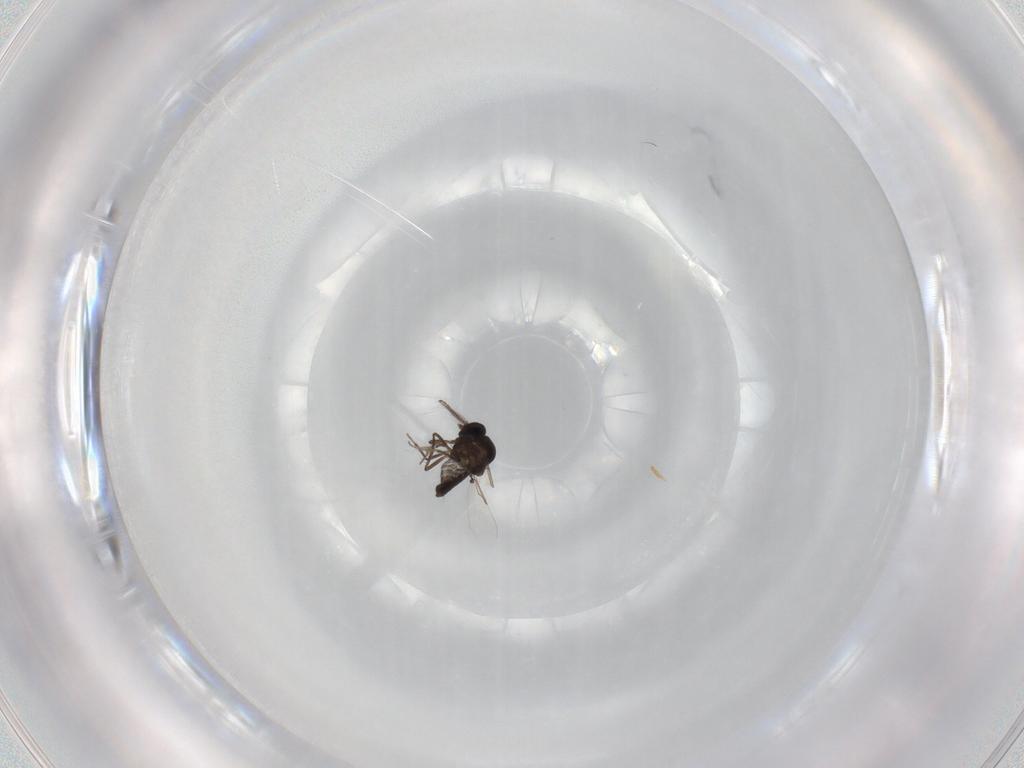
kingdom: Animalia
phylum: Arthropoda
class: Insecta
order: Diptera
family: Ceratopogonidae
